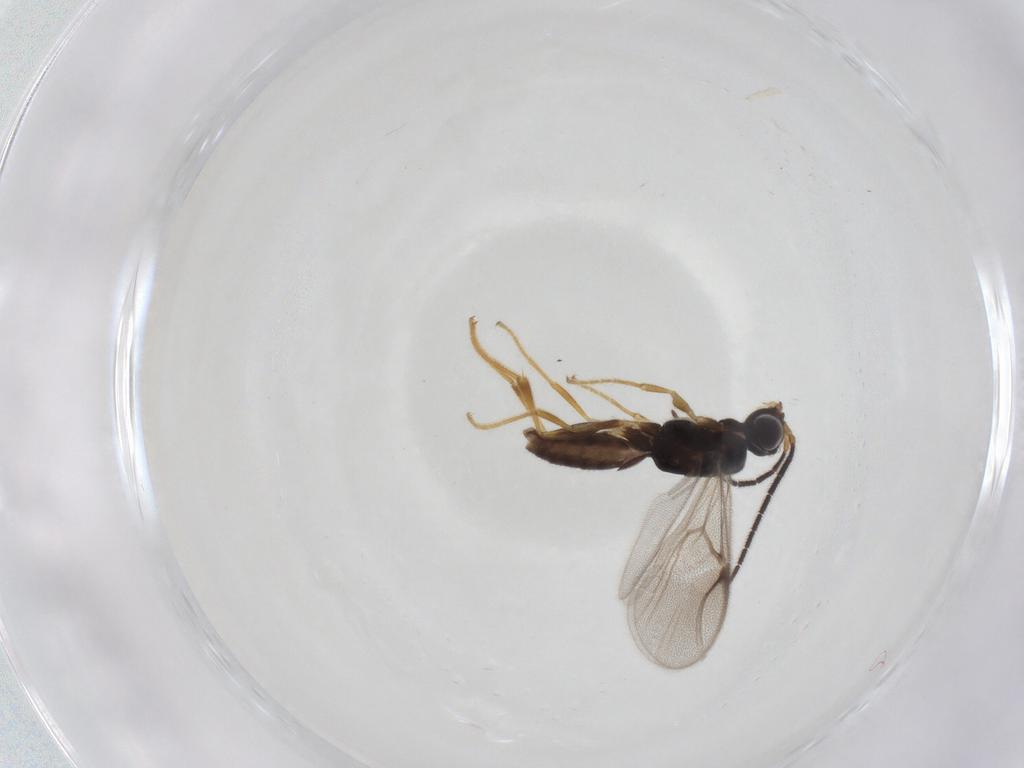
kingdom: Animalia
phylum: Arthropoda
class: Insecta
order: Hymenoptera
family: Dryinidae
